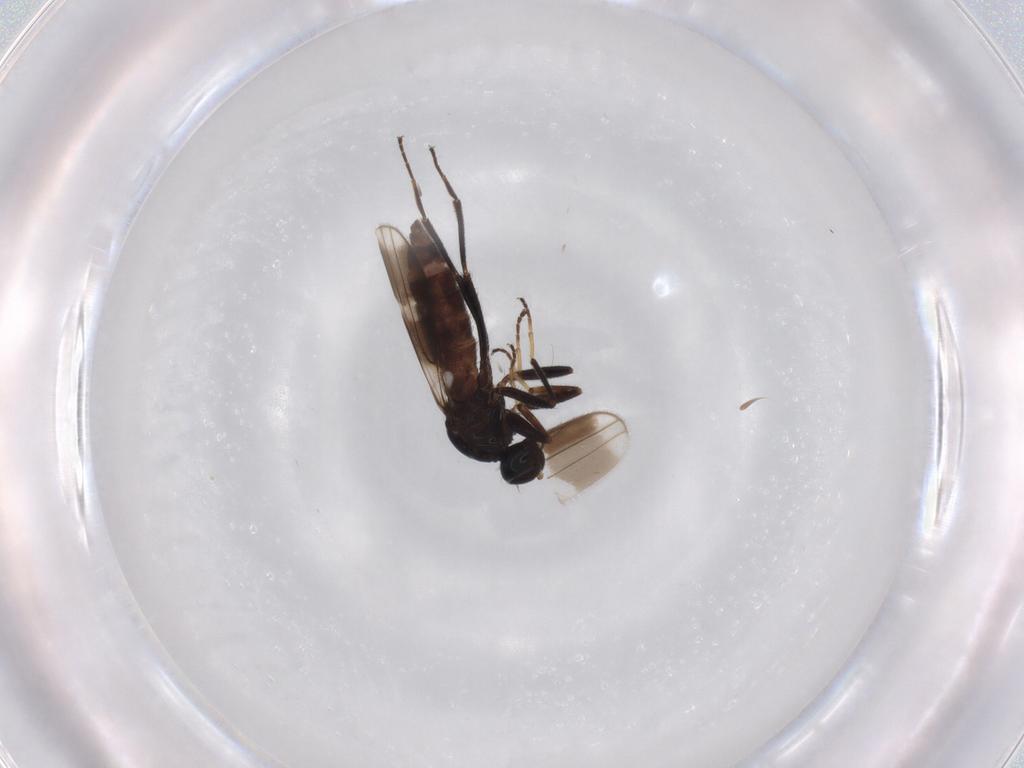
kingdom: Animalia
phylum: Arthropoda
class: Insecta
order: Diptera
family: Hybotidae
